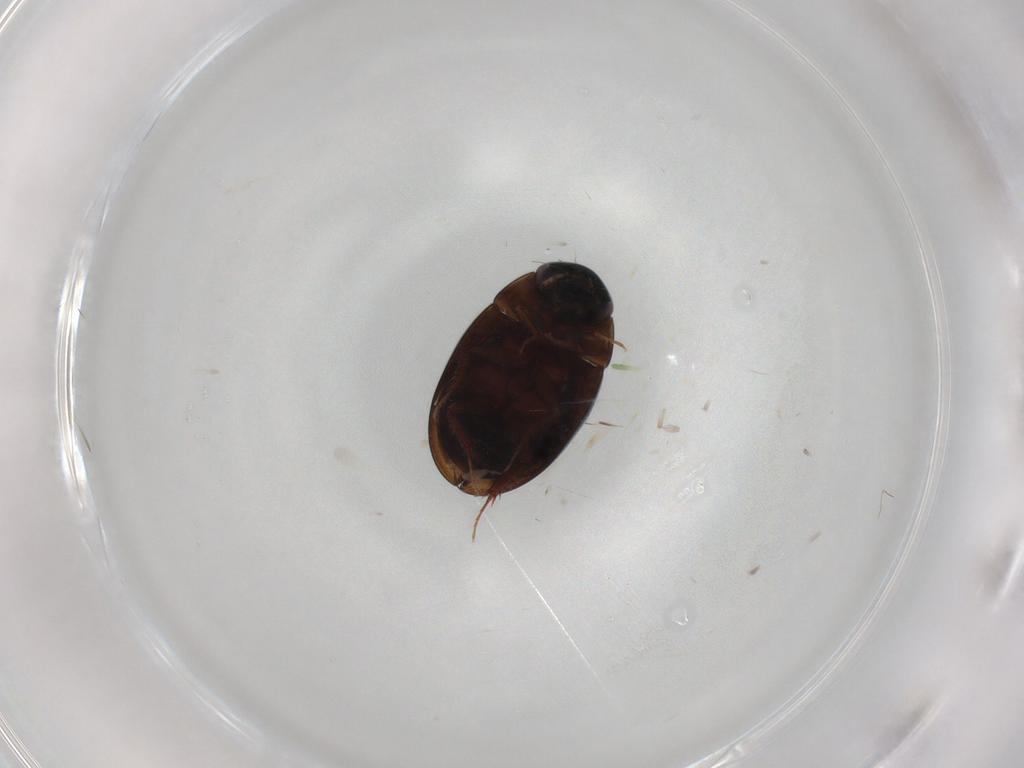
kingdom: Animalia
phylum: Arthropoda
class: Insecta
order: Coleoptera
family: Hydrophilidae
